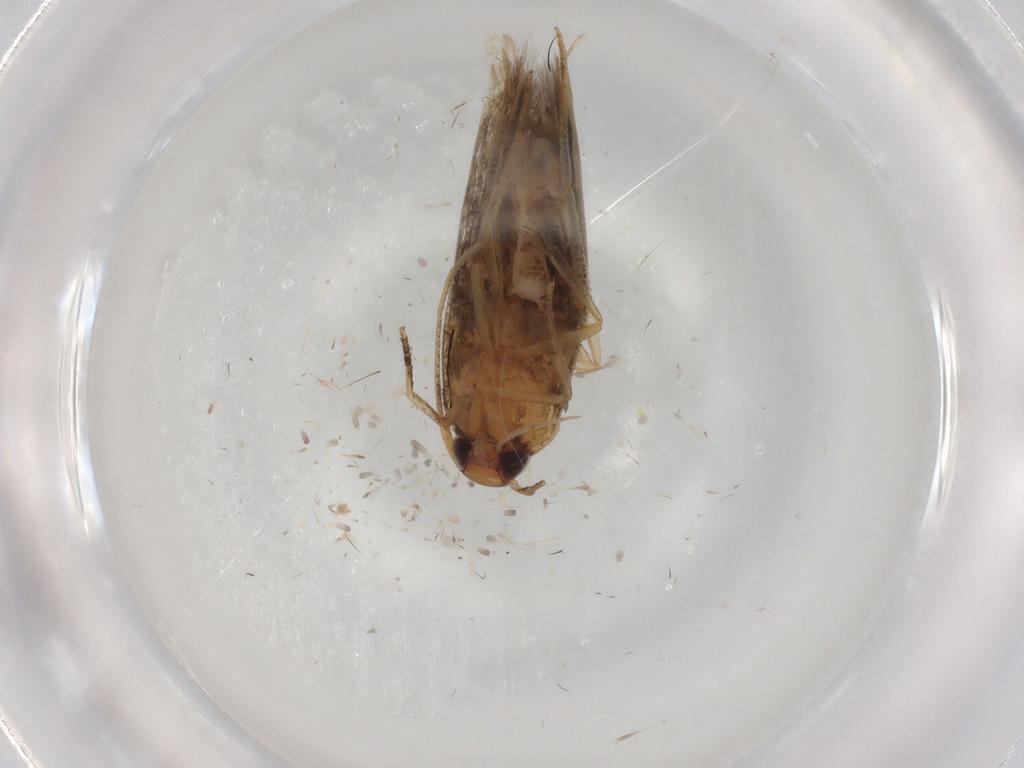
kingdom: Animalia
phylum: Arthropoda
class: Insecta
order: Lepidoptera
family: Cosmopterigidae
